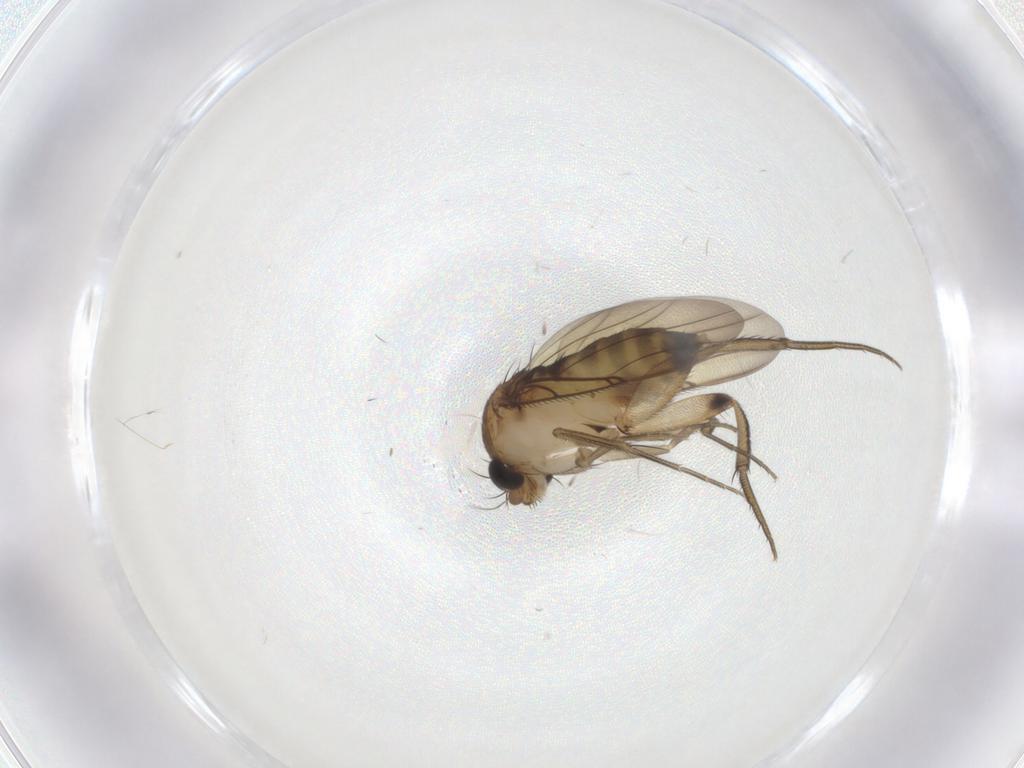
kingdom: Animalia
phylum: Arthropoda
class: Insecta
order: Diptera
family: Phoridae
